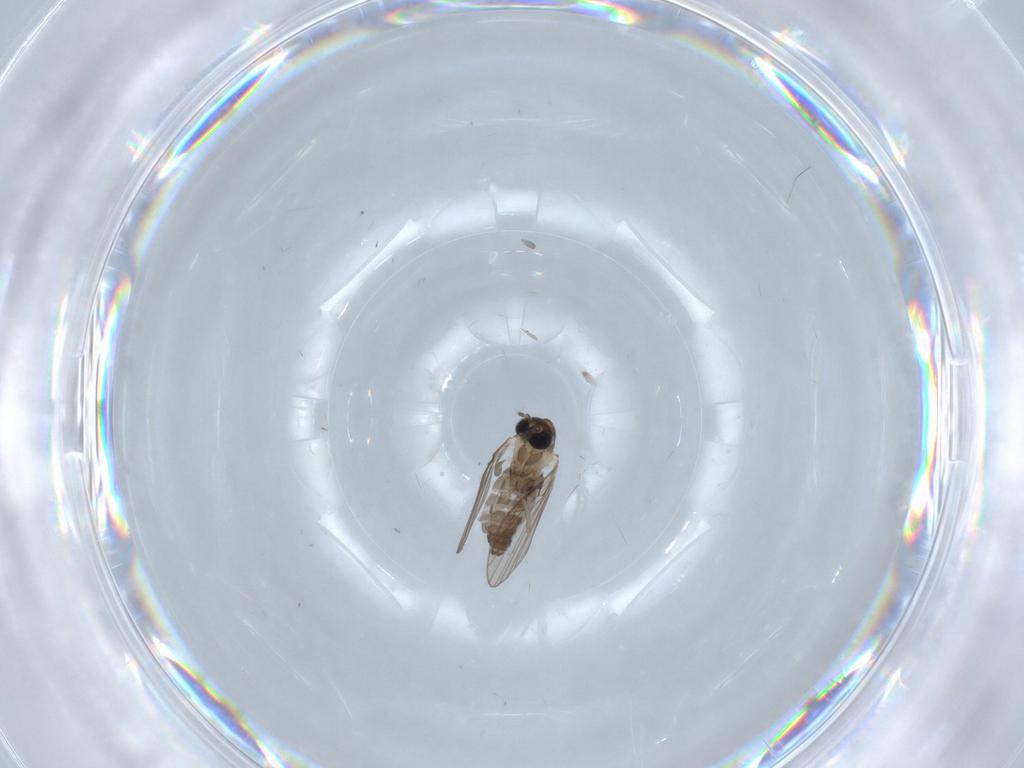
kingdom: Animalia
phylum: Arthropoda
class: Insecta
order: Diptera
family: Psychodidae
